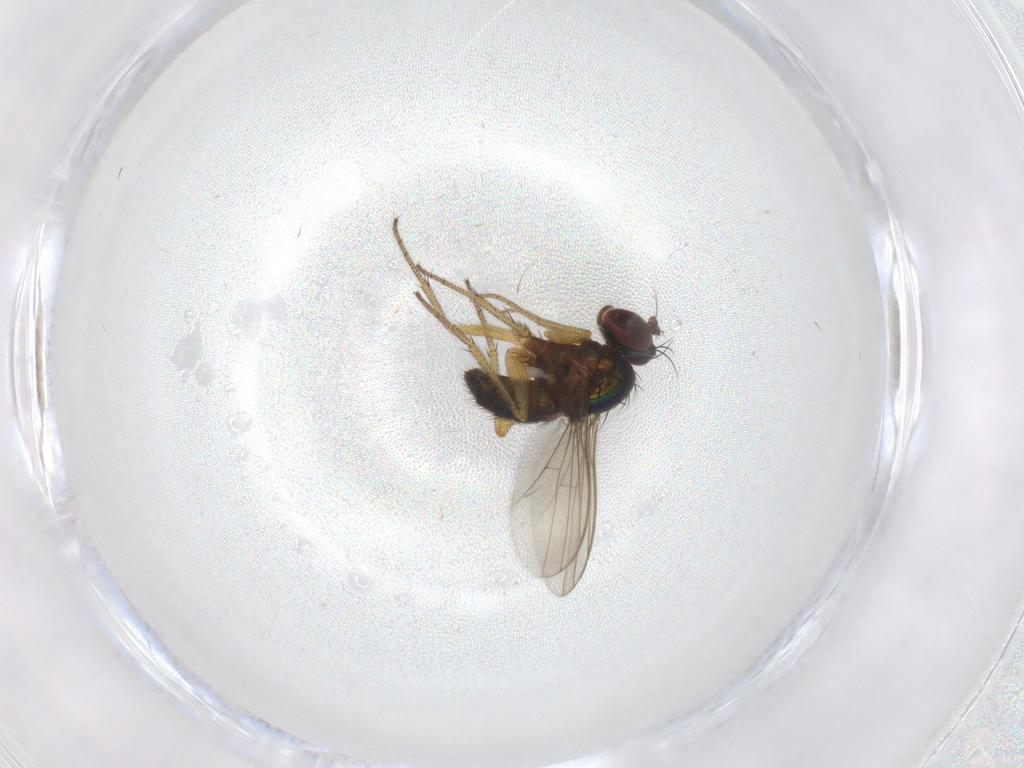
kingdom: Animalia
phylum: Arthropoda
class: Insecta
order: Diptera
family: Dolichopodidae
